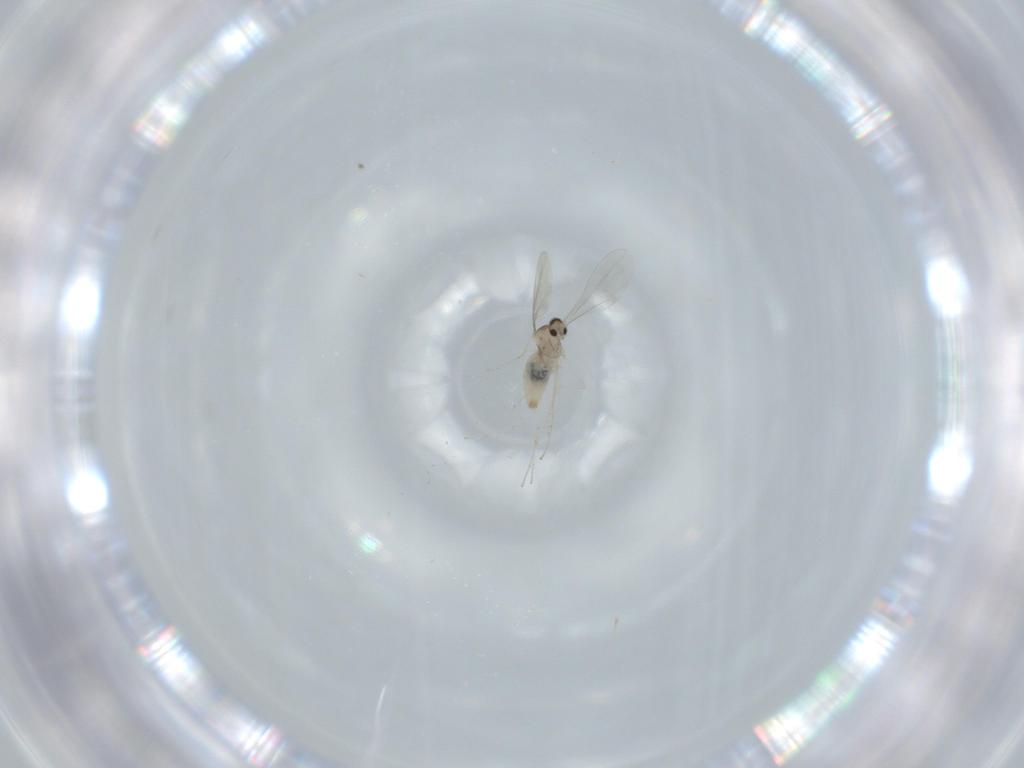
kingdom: Animalia
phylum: Arthropoda
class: Insecta
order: Diptera
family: Cecidomyiidae
